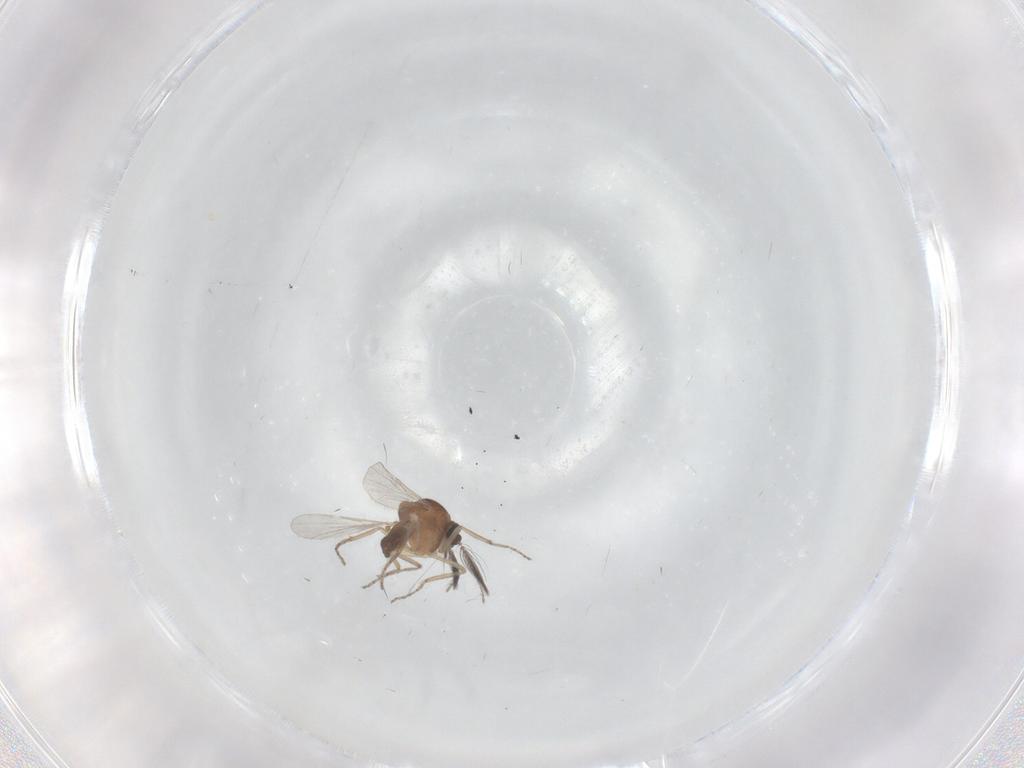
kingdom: Animalia
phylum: Arthropoda
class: Insecta
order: Diptera
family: Ceratopogonidae
